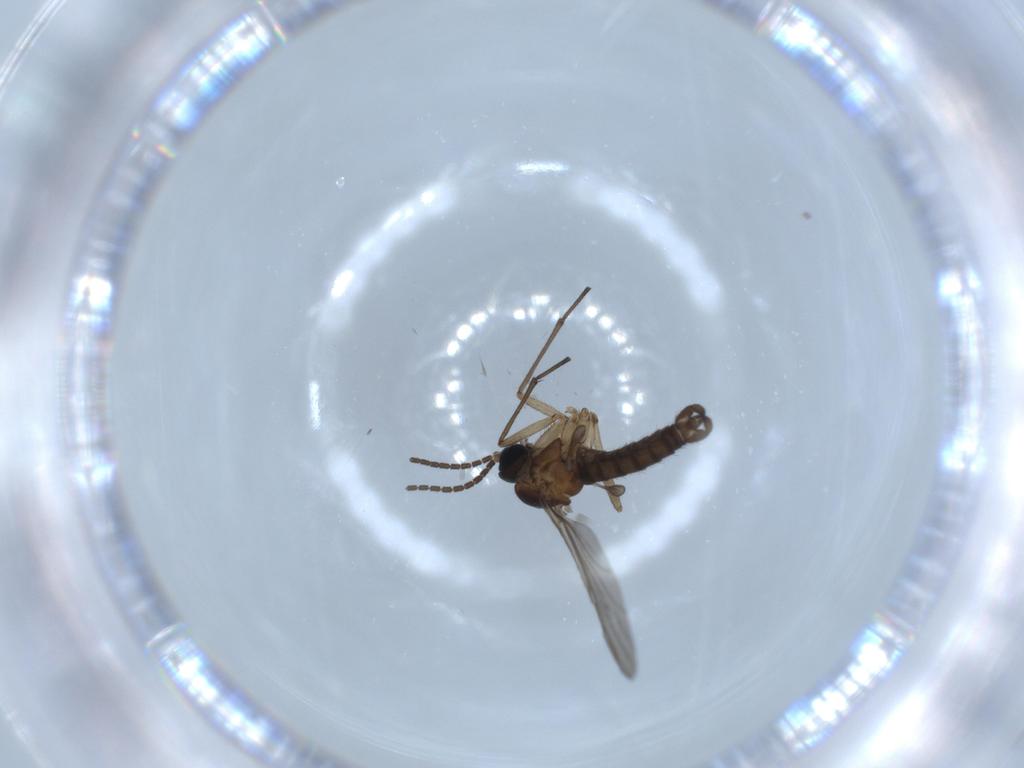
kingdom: Animalia
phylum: Arthropoda
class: Insecta
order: Diptera
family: Sciaridae
